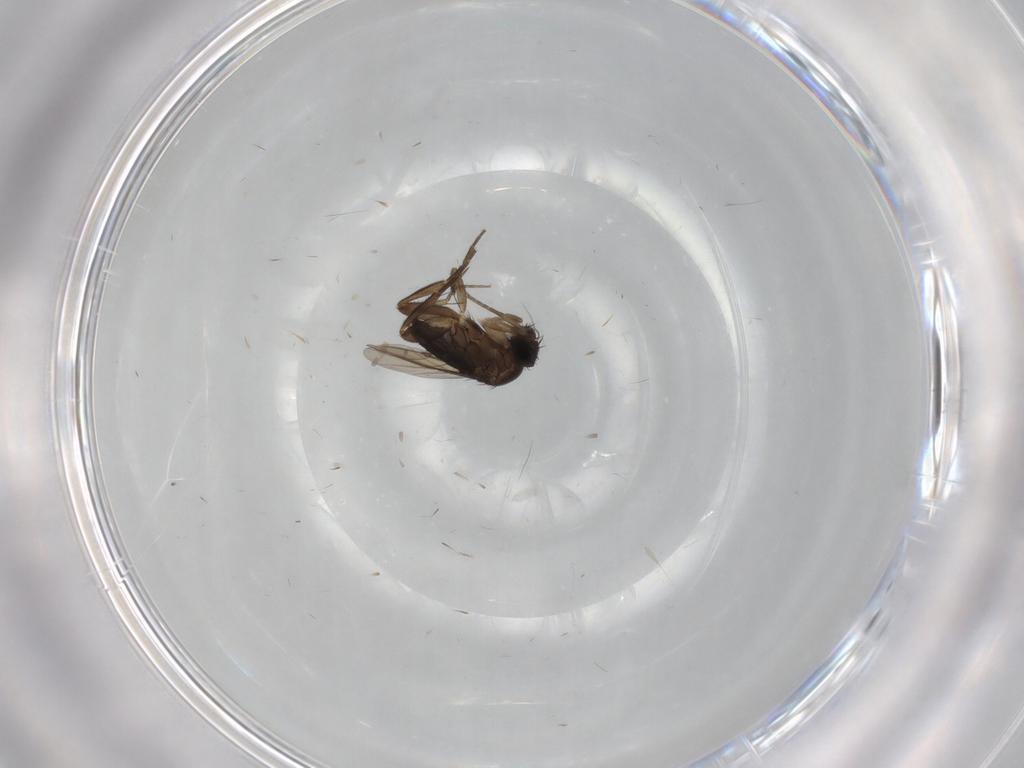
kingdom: Animalia
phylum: Arthropoda
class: Insecta
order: Diptera
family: Phoridae
